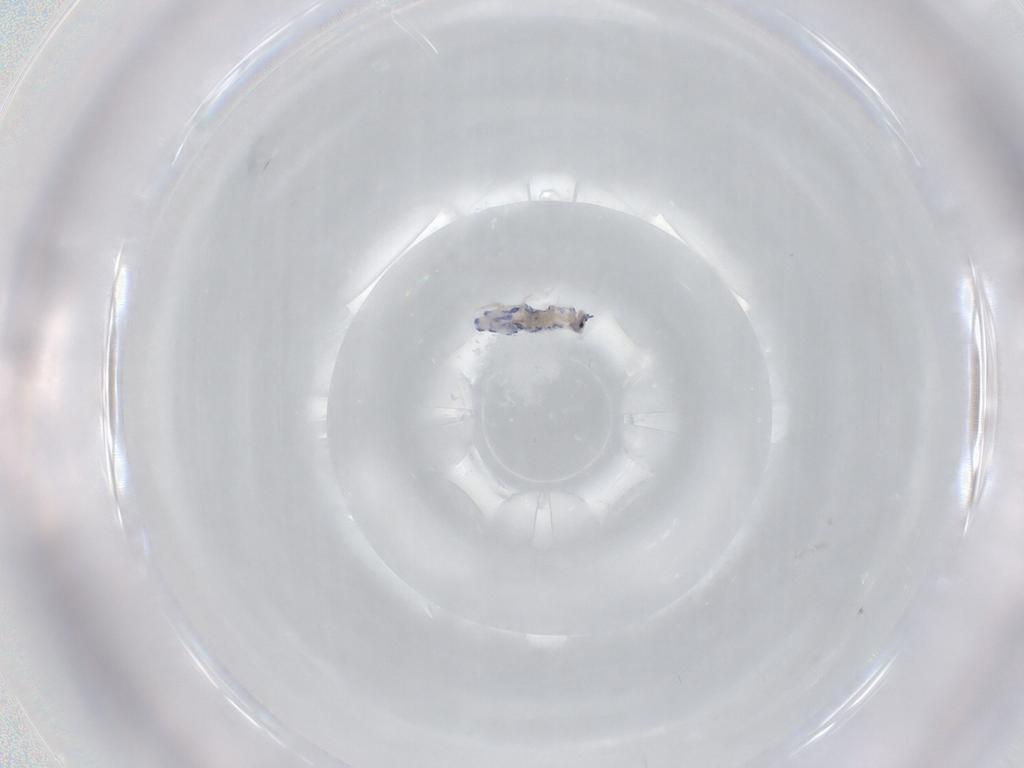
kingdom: Animalia
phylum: Arthropoda
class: Collembola
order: Entomobryomorpha
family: Entomobryidae
